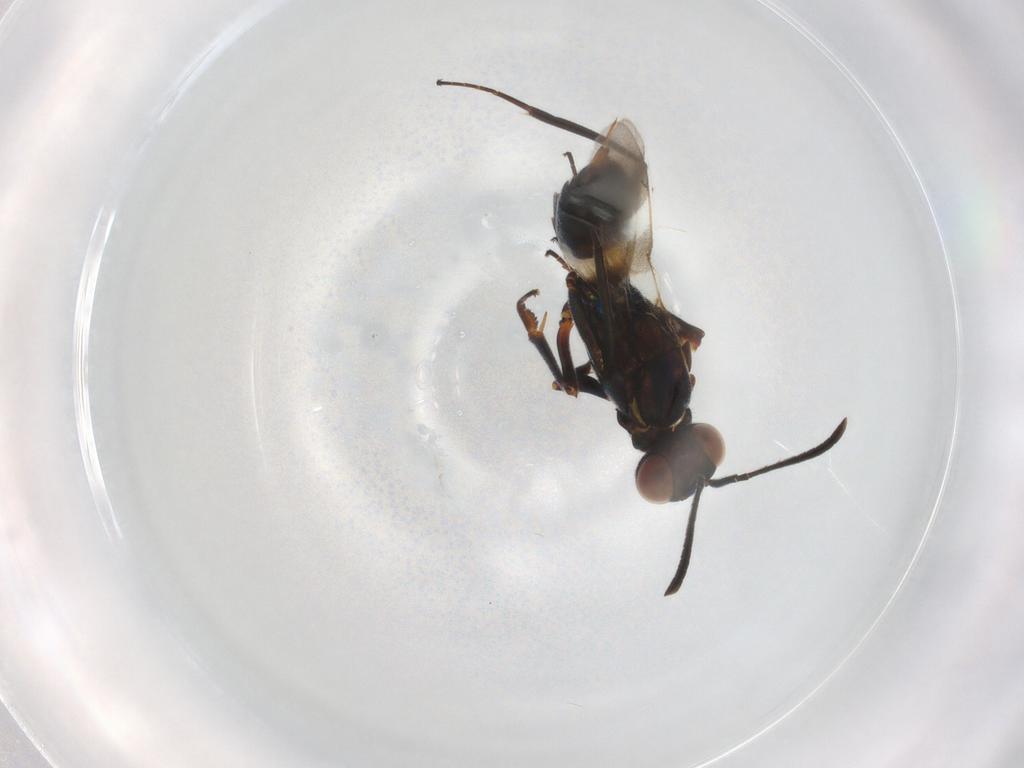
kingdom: Animalia
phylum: Arthropoda
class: Insecta
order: Hymenoptera
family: Eupelmidae
